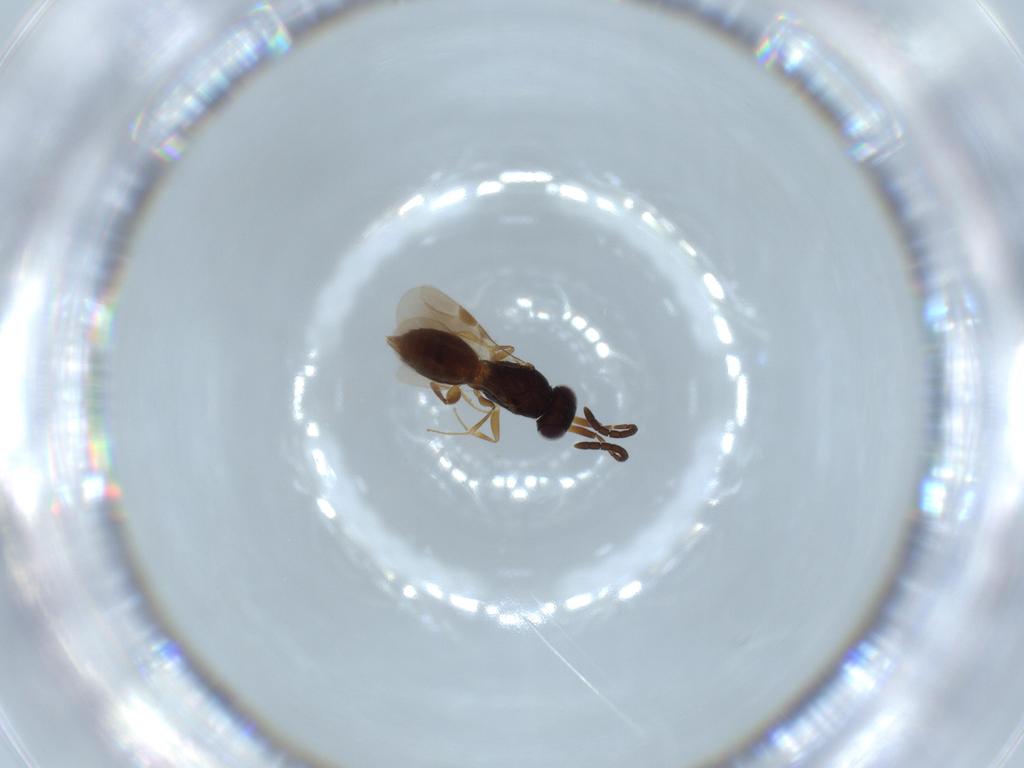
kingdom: Animalia
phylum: Arthropoda
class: Insecta
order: Hymenoptera
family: Megaspilidae
